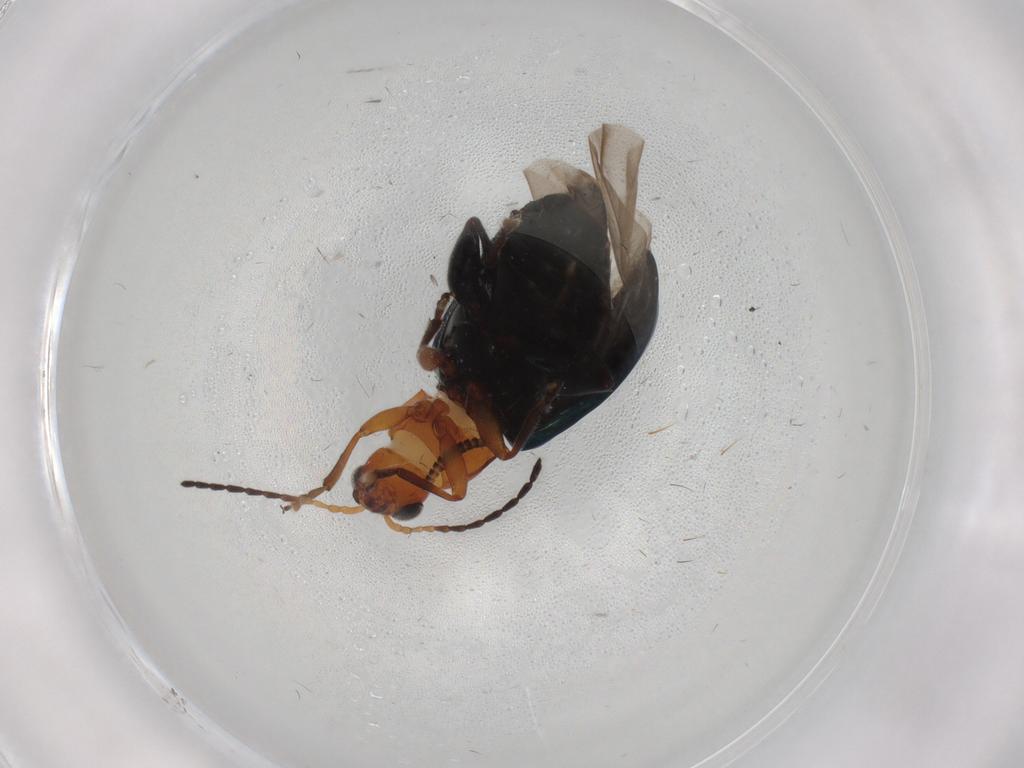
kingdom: Animalia
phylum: Arthropoda
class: Insecta
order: Coleoptera
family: Chrysomelidae
